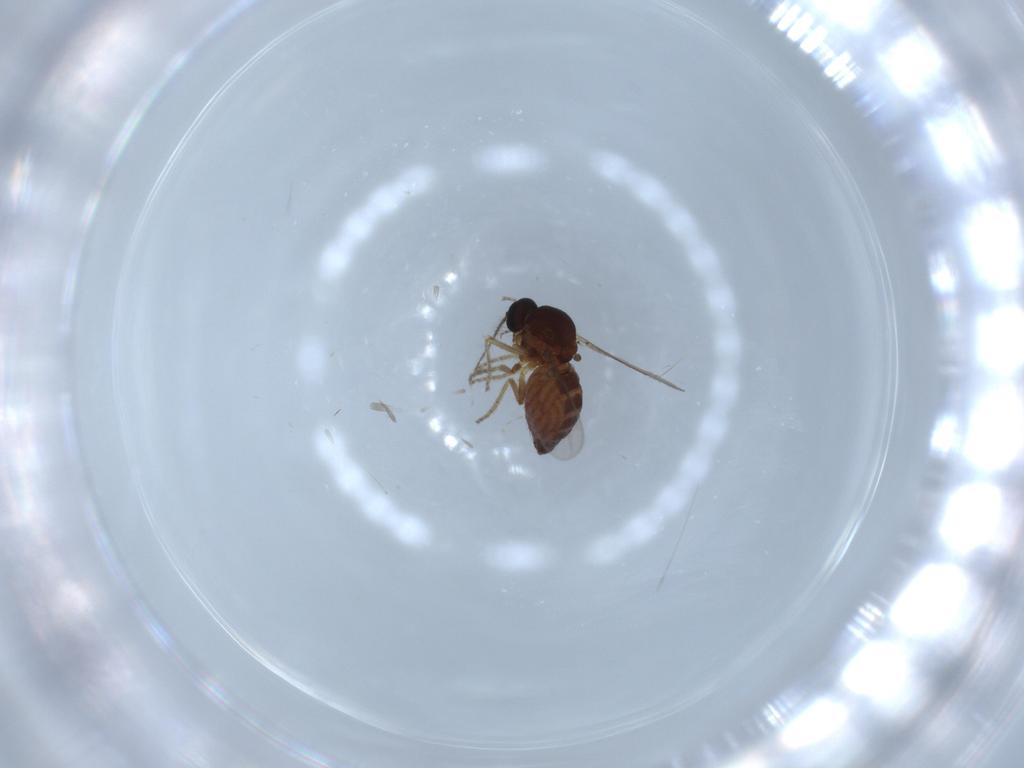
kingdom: Animalia
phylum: Arthropoda
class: Insecta
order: Diptera
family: Ceratopogonidae
